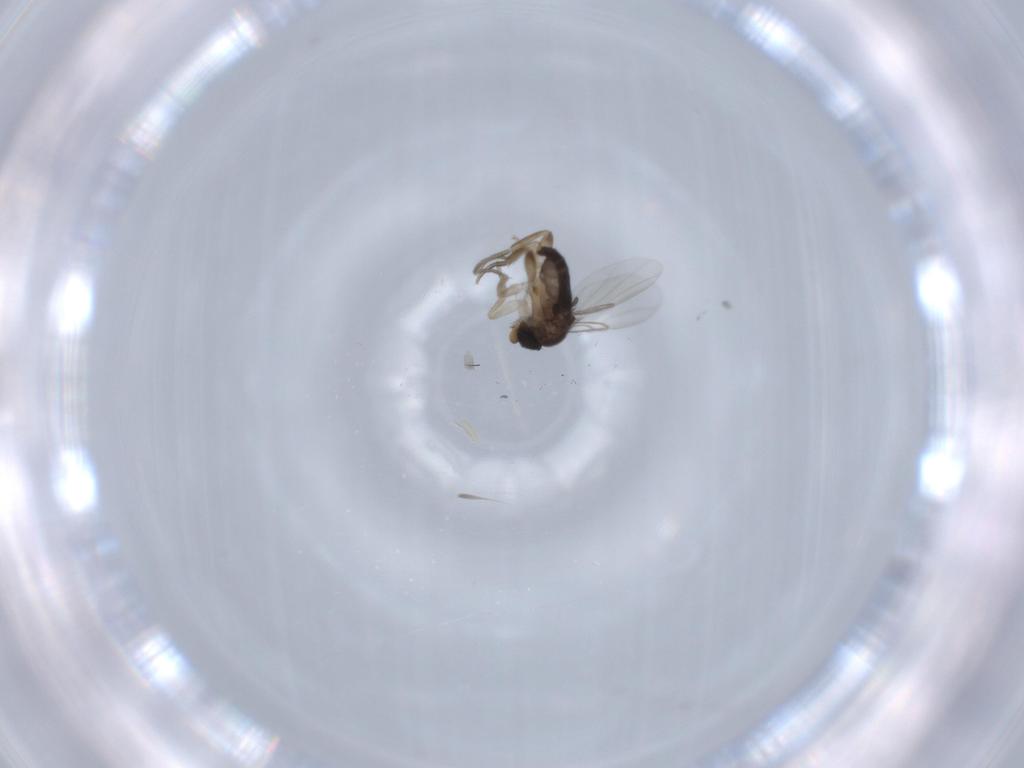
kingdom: Animalia
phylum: Arthropoda
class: Insecta
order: Diptera
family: Phoridae
